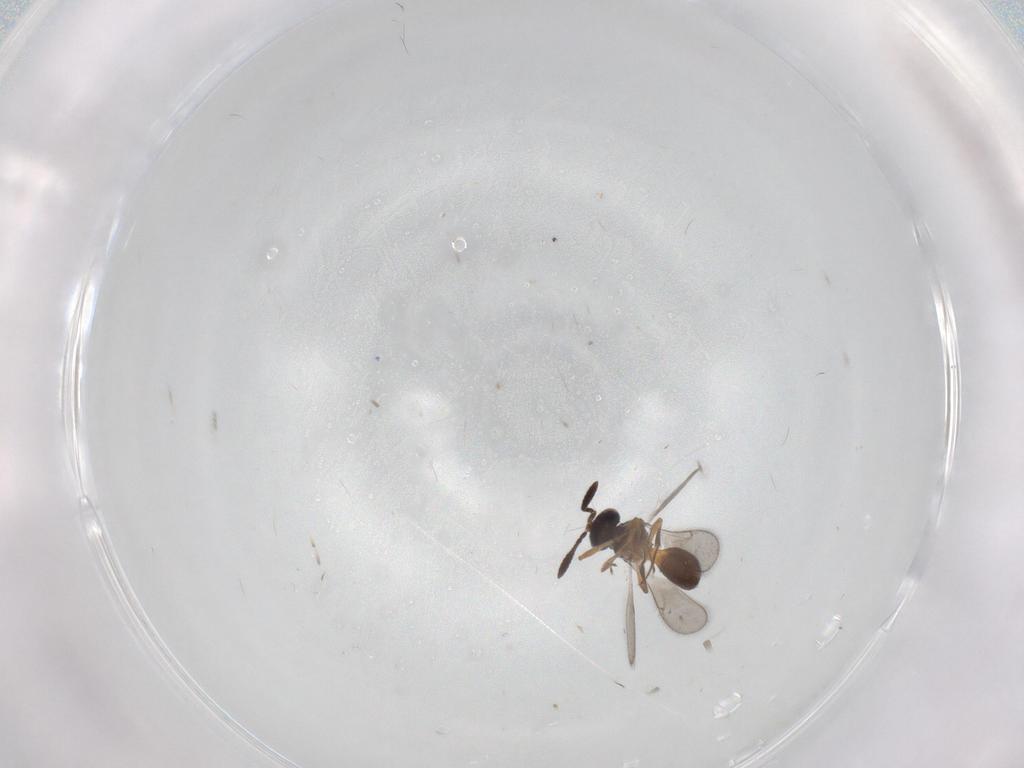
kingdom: Animalia
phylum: Arthropoda
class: Insecta
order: Hymenoptera
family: Scelionidae
